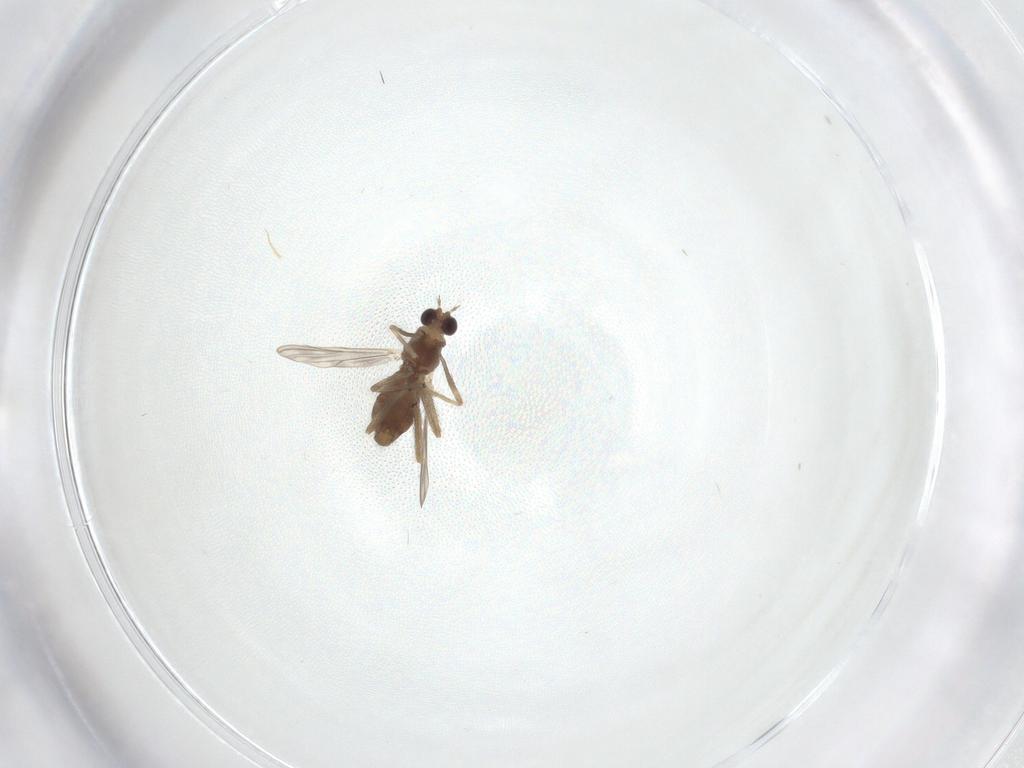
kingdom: Animalia
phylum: Arthropoda
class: Insecta
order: Diptera
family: Chironomidae
